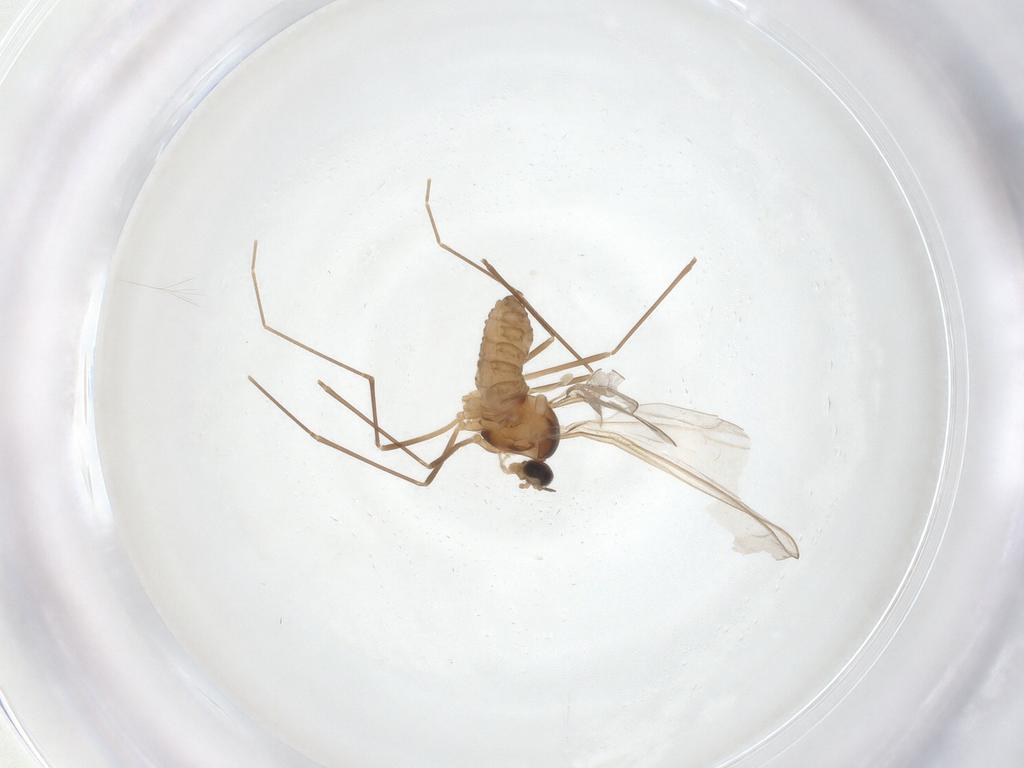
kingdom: Animalia
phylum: Arthropoda
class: Insecta
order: Diptera
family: Cecidomyiidae
